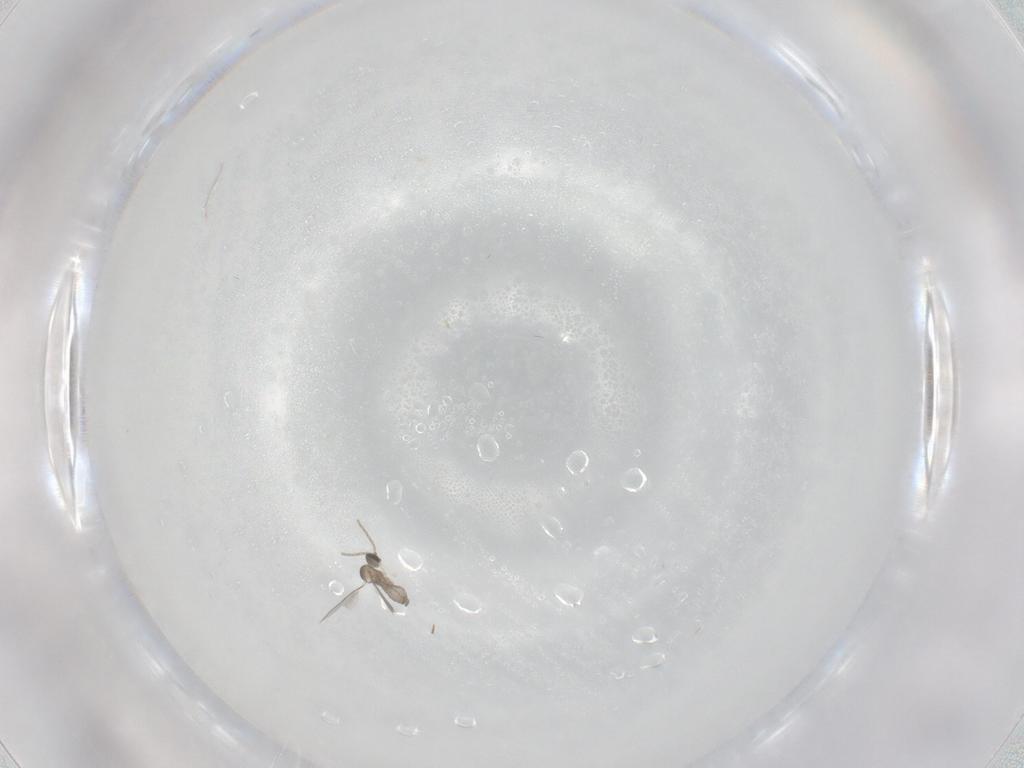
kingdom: Animalia
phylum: Arthropoda
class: Insecta
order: Diptera
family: Cecidomyiidae
